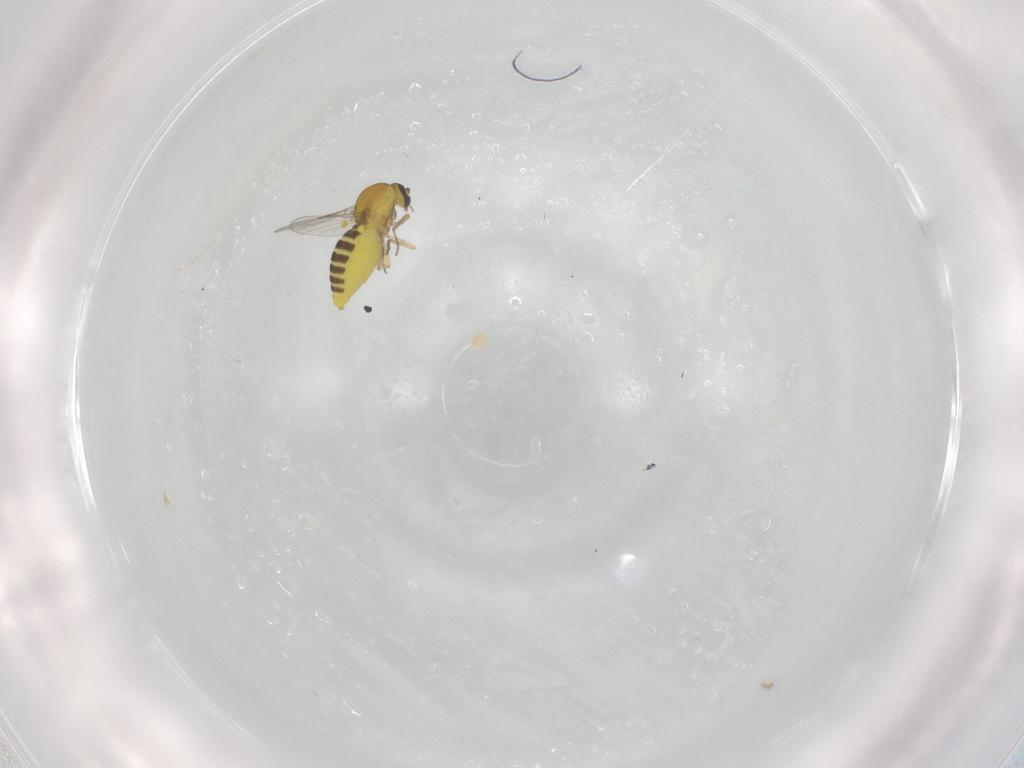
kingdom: Animalia
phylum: Arthropoda
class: Insecta
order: Diptera
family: Ceratopogonidae
